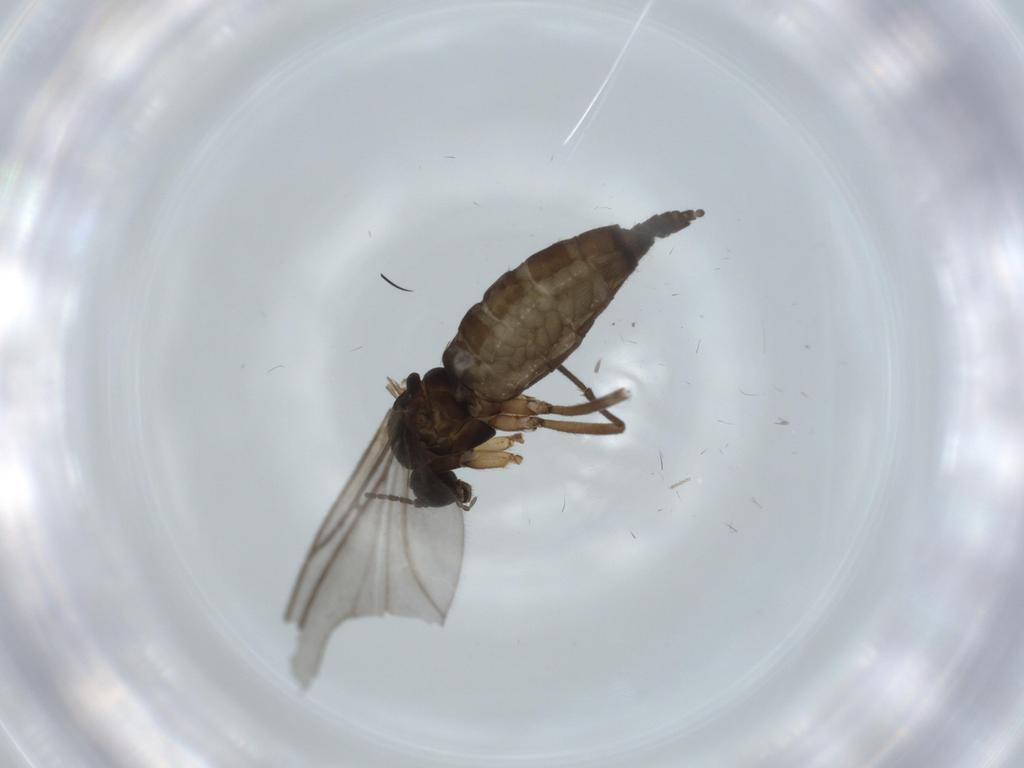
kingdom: Animalia
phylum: Arthropoda
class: Insecta
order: Diptera
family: Sciaridae
